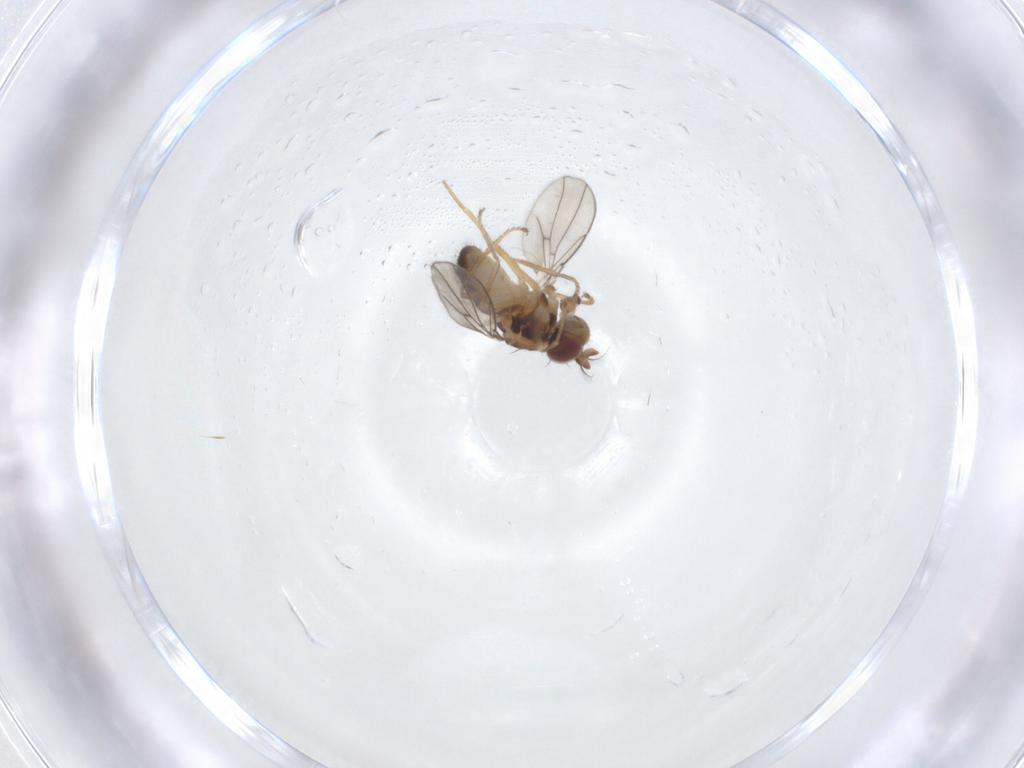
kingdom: Animalia
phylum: Arthropoda
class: Insecta
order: Diptera
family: Ephydridae
